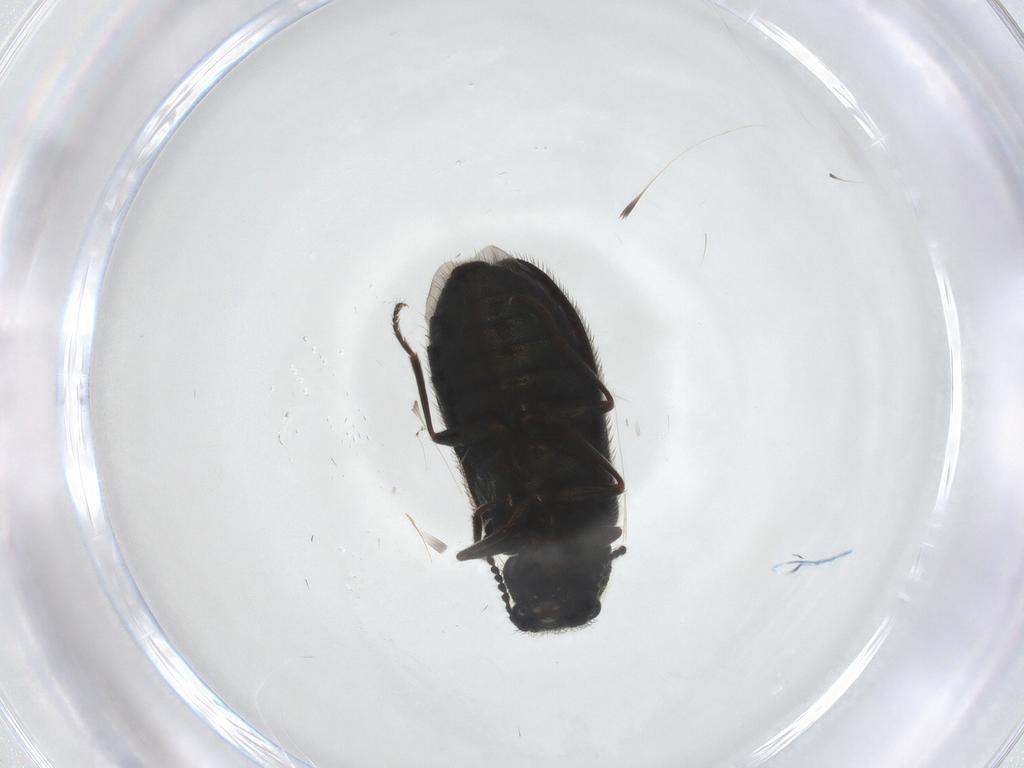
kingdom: Animalia
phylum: Arthropoda
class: Insecta
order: Coleoptera
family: Melyridae
